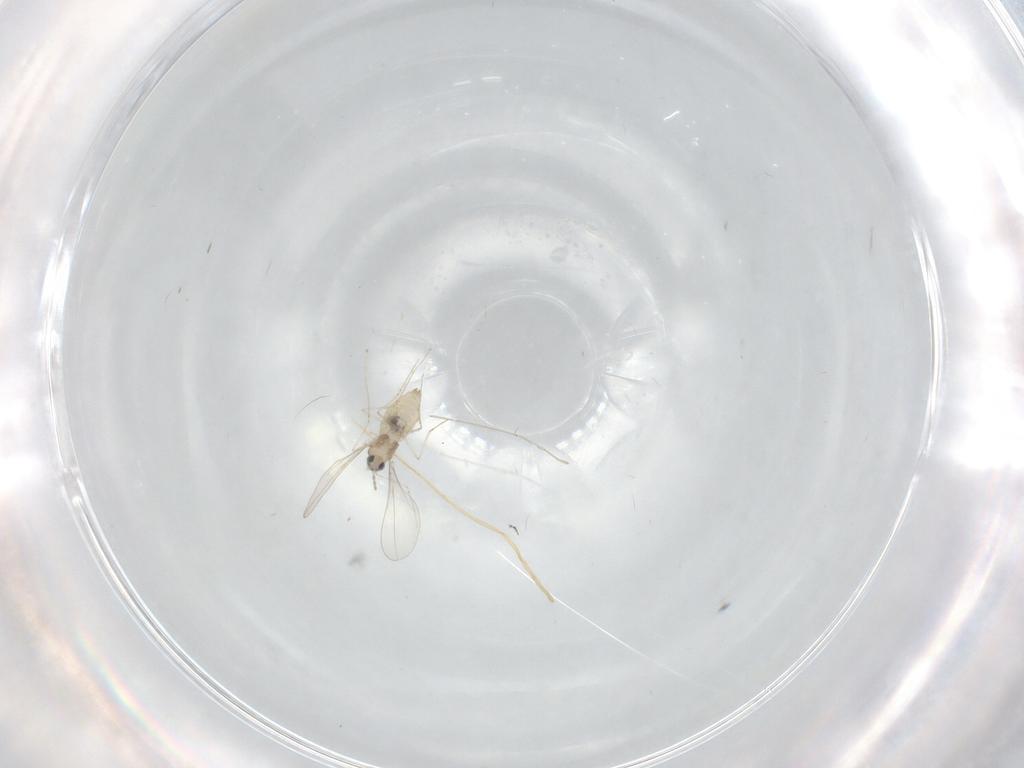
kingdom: Animalia
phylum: Arthropoda
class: Insecta
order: Diptera
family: Cecidomyiidae
